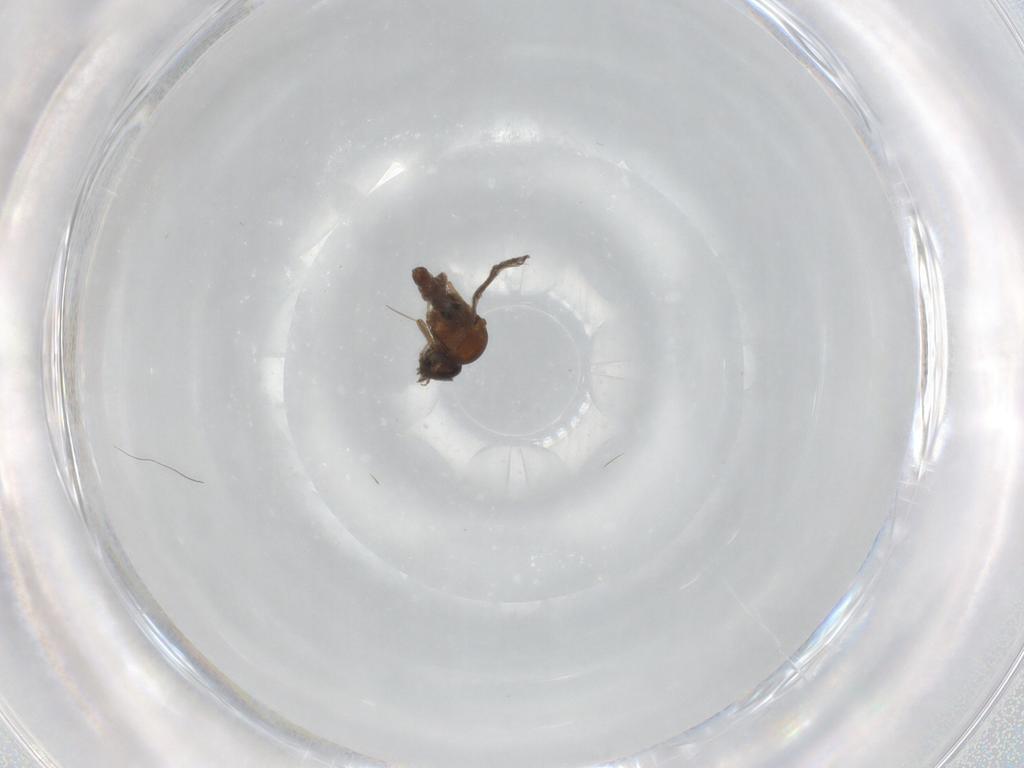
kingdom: Animalia
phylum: Arthropoda
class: Insecta
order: Diptera
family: Ceratopogonidae
